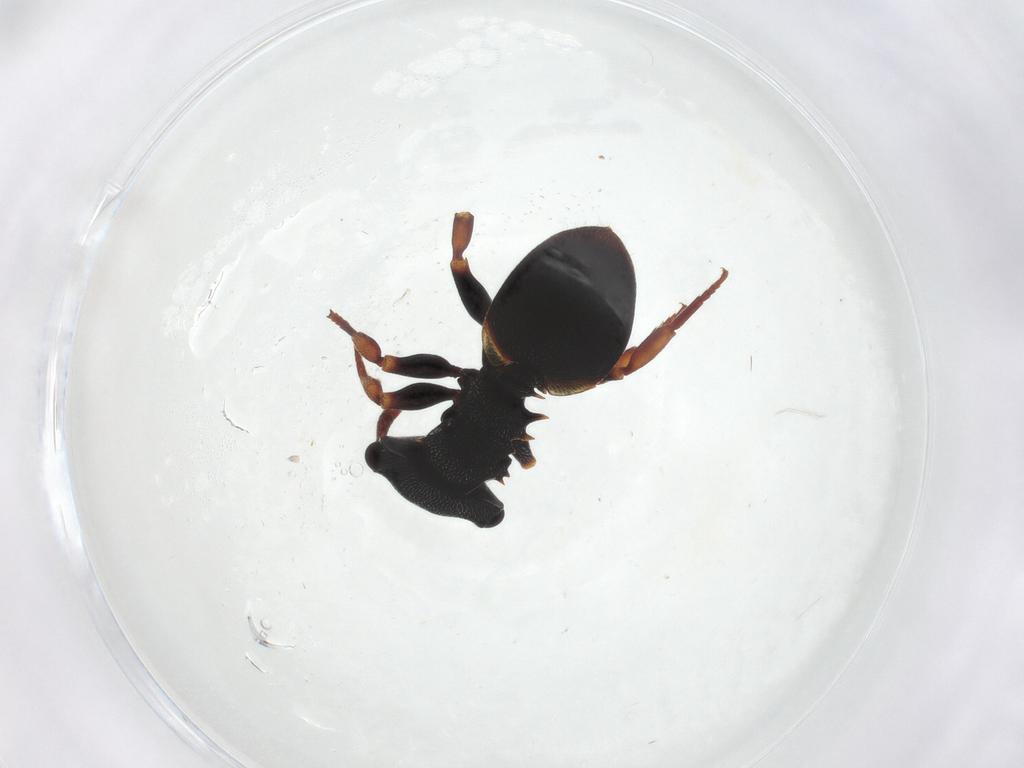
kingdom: Animalia
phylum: Arthropoda
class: Insecta
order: Hymenoptera
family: Formicidae
